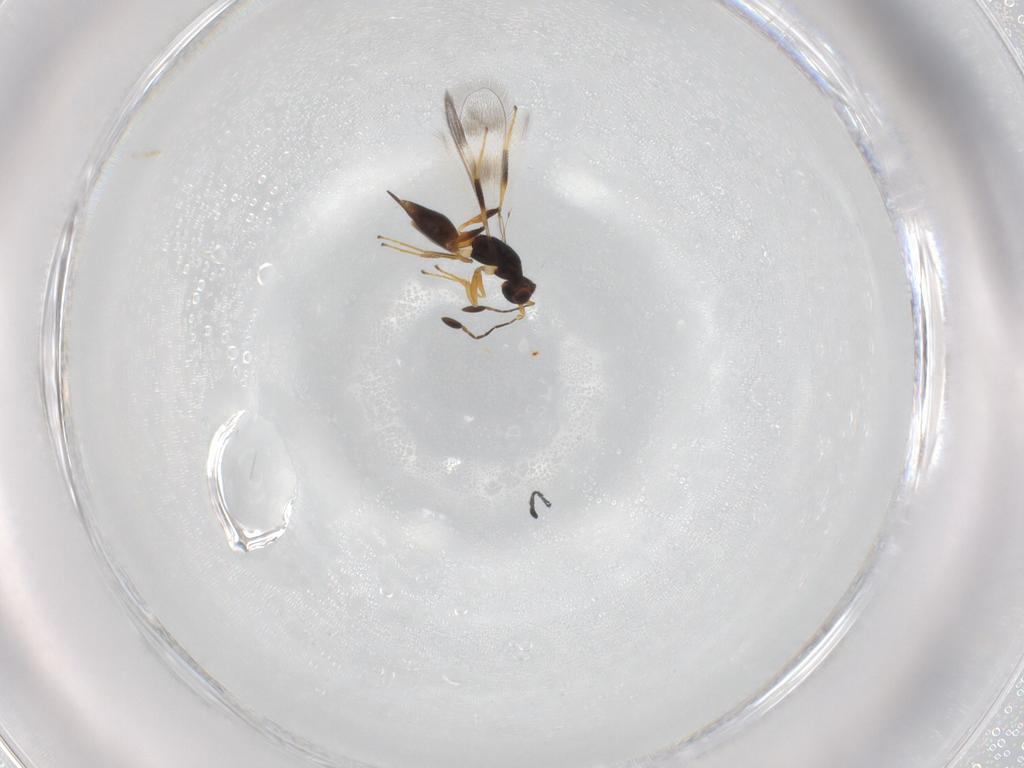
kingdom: Animalia
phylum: Arthropoda
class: Insecta
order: Hymenoptera
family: Mymaridae
